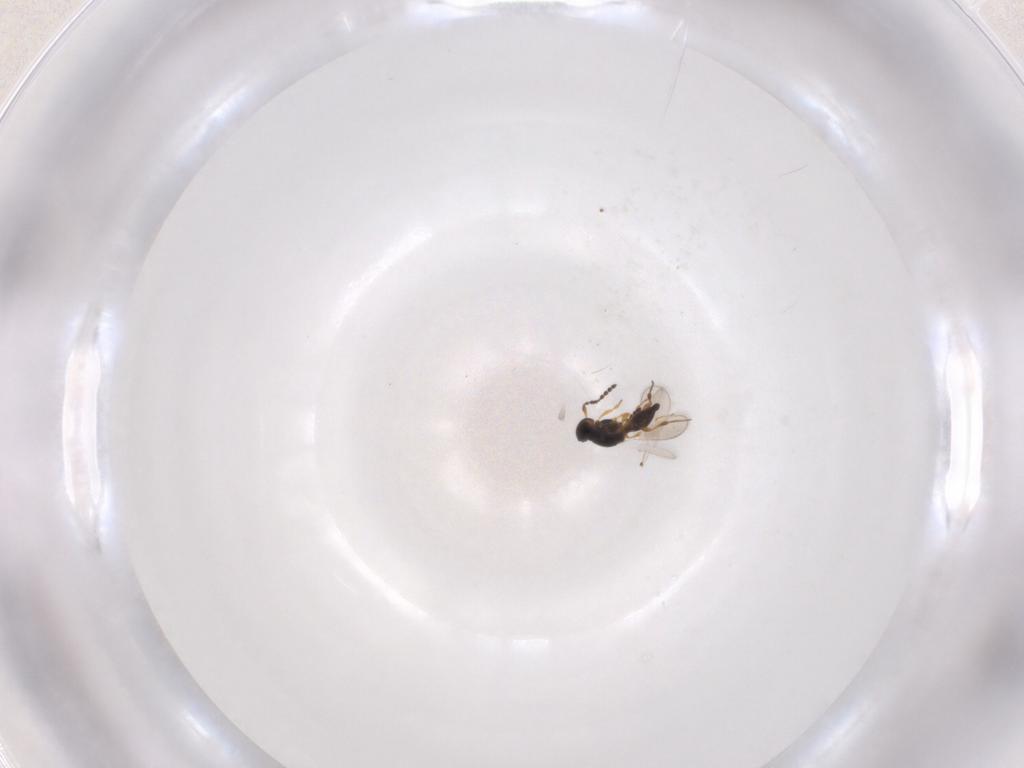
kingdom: Animalia
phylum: Arthropoda
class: Insecta
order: Hymenoptera
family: Platygastridae
